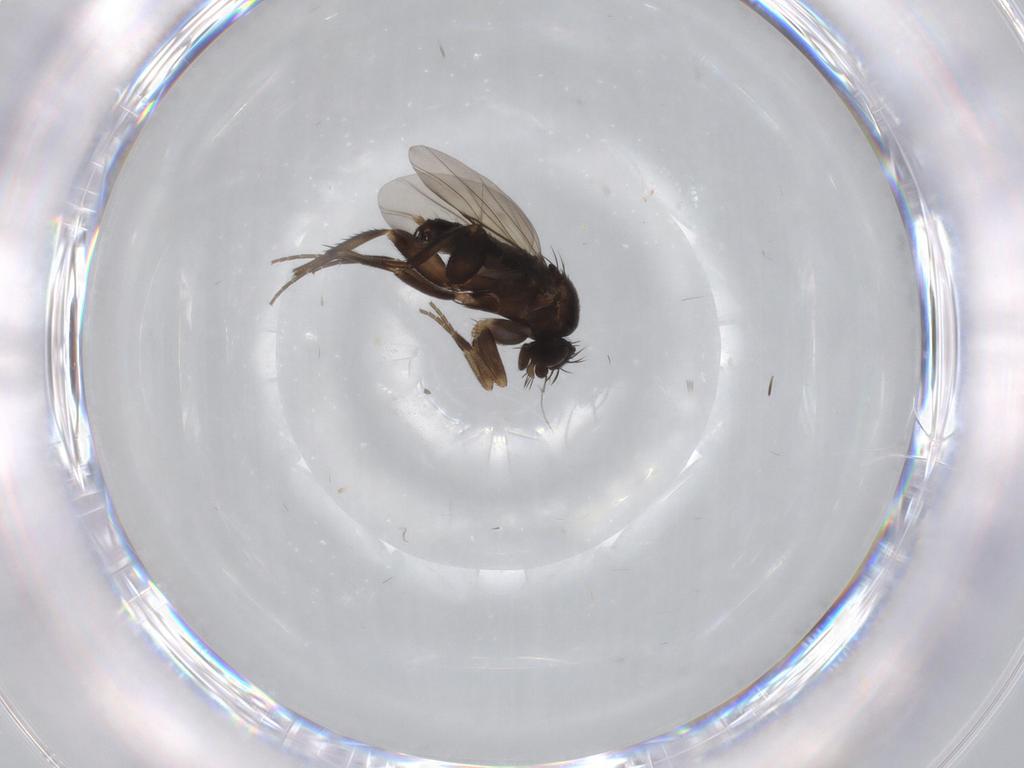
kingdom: Animalia
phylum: Arthropoda
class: Insecta
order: Diptera
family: Phoridae
